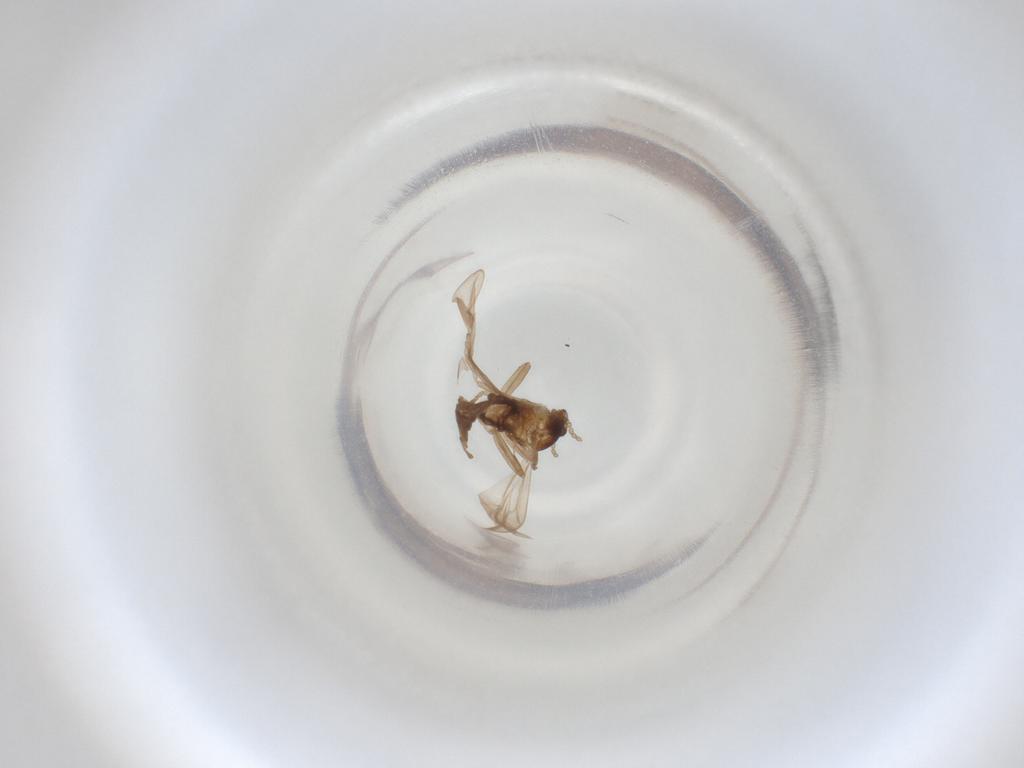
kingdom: Animalia
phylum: Arthropoda
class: Insecta
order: Diptera
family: Cecidomyiidae
